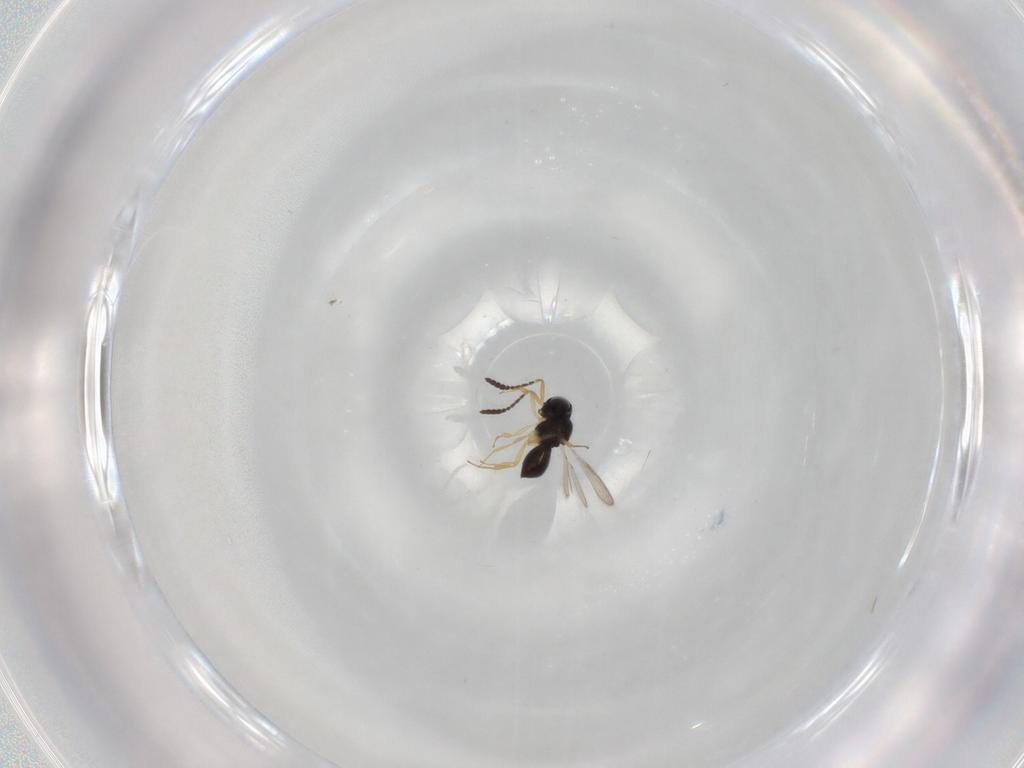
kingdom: Animalia
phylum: Arthropoda
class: Insecta
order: Hymenoptera
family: Scelionidae
